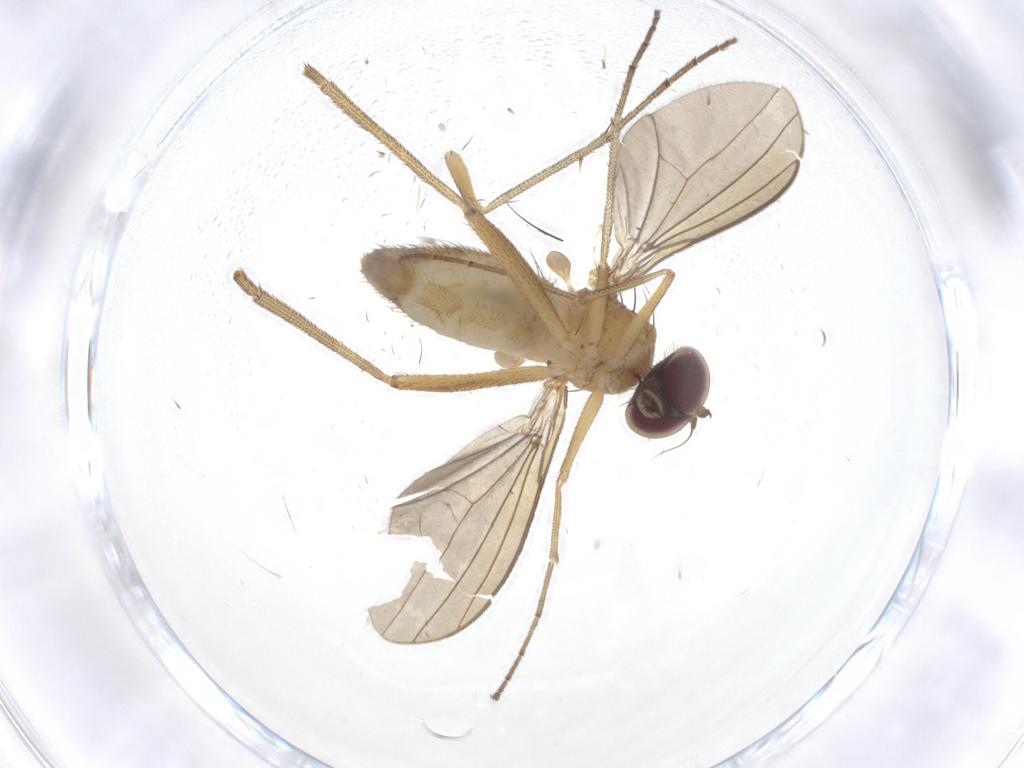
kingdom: Animalia
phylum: Arthropoda
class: Insecta
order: Diptera
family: Dolichopodidae
